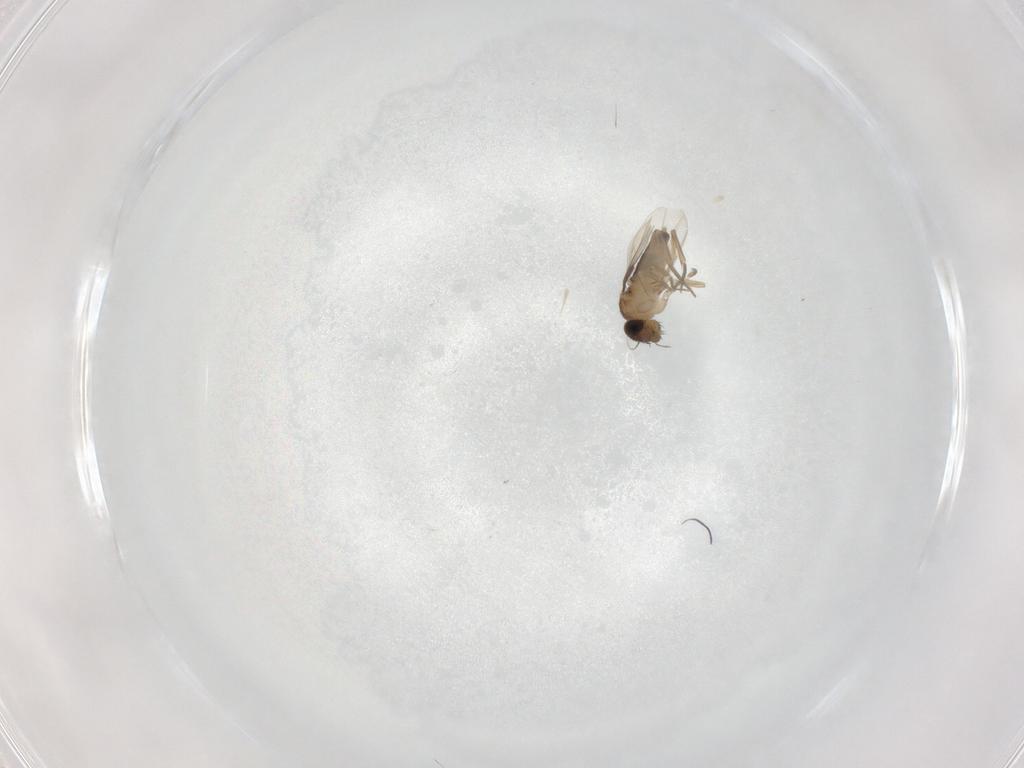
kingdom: Animalia
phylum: Arthropoda
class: Insecta
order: Diptera
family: Phoridae
